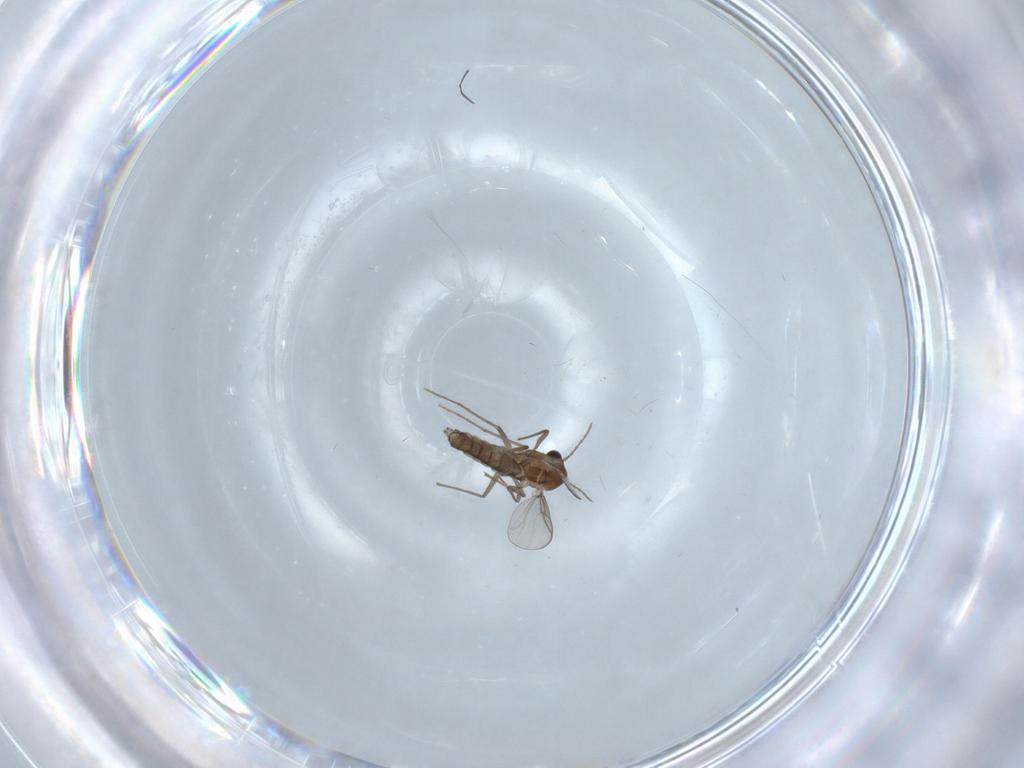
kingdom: Animalia
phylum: Arthropoda
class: Insecta
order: Diptera
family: Chironomidae
